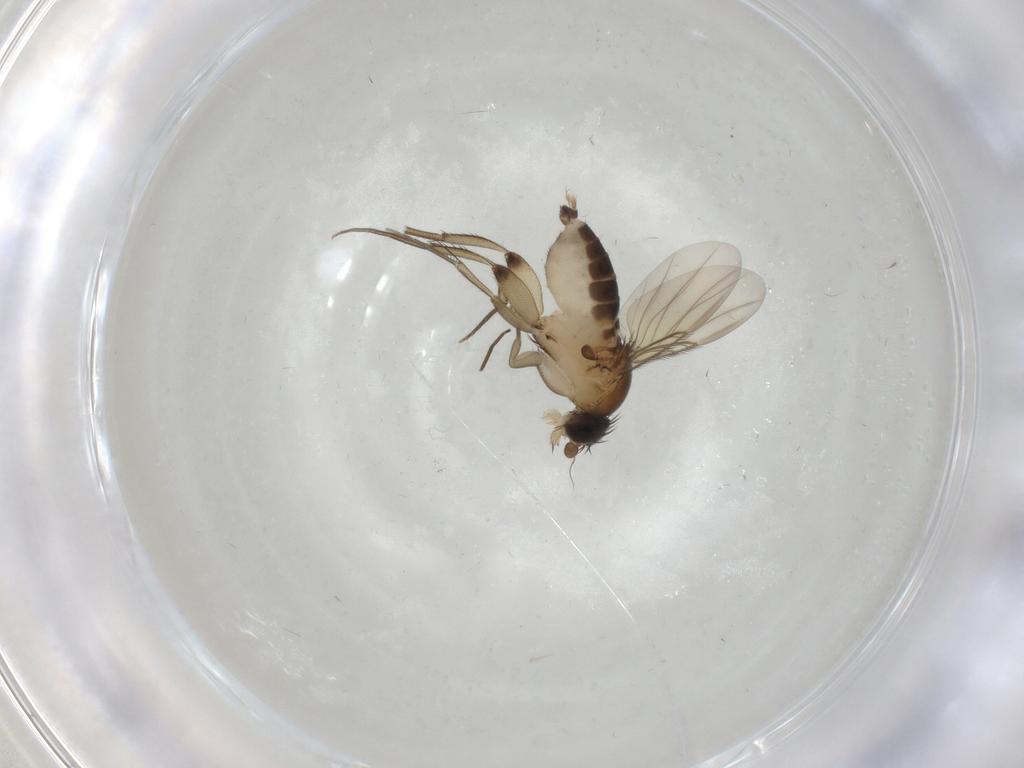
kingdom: Animalia
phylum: Arthropoda
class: Insecta
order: Diptera
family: Phoridae
